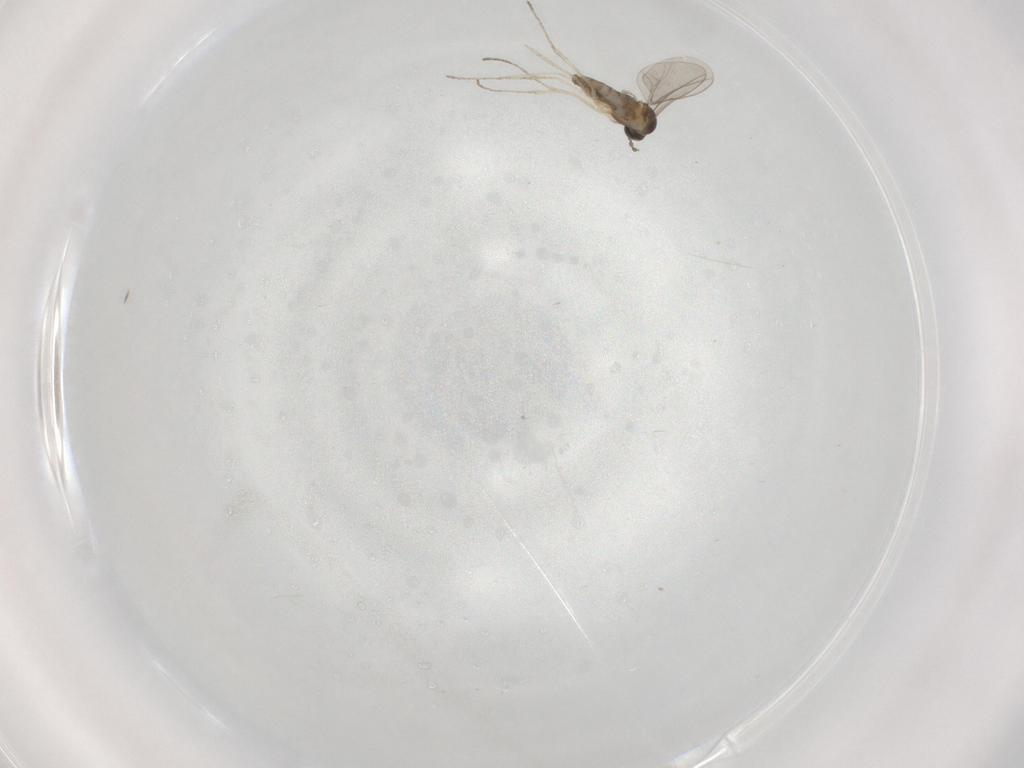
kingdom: Animalia
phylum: Arthropoda
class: Insecta
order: Diptera
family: Cecidomyiidae
